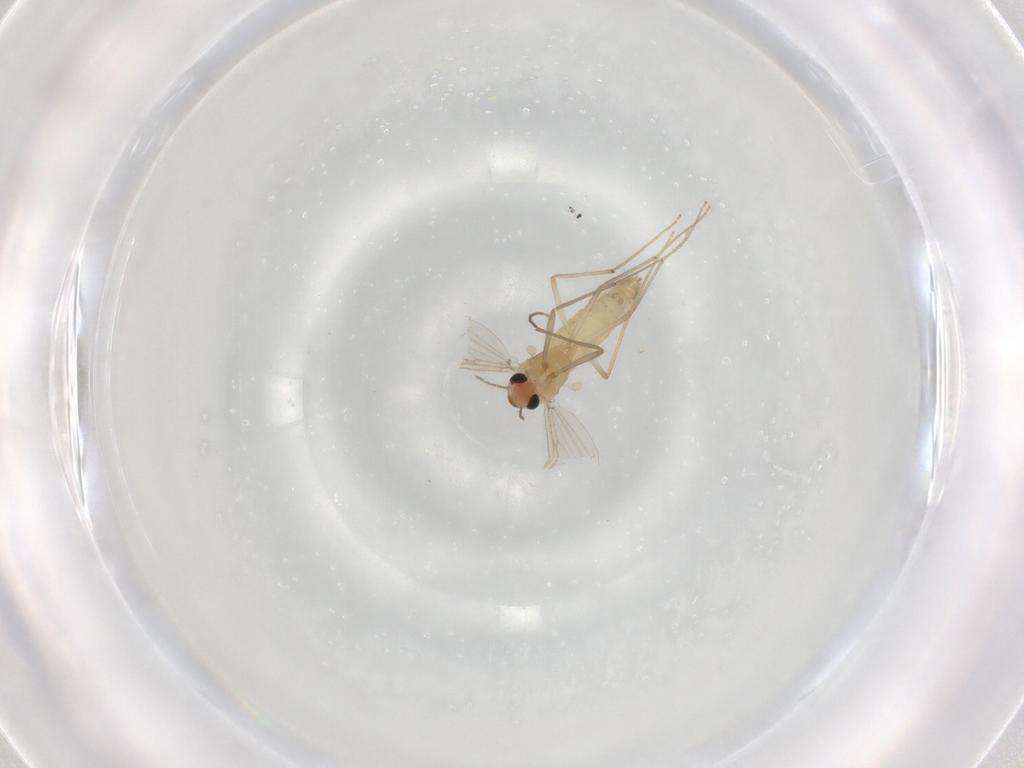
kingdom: Animalia
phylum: Arthropoda
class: Insecta
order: Diptera
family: Chironomidae
